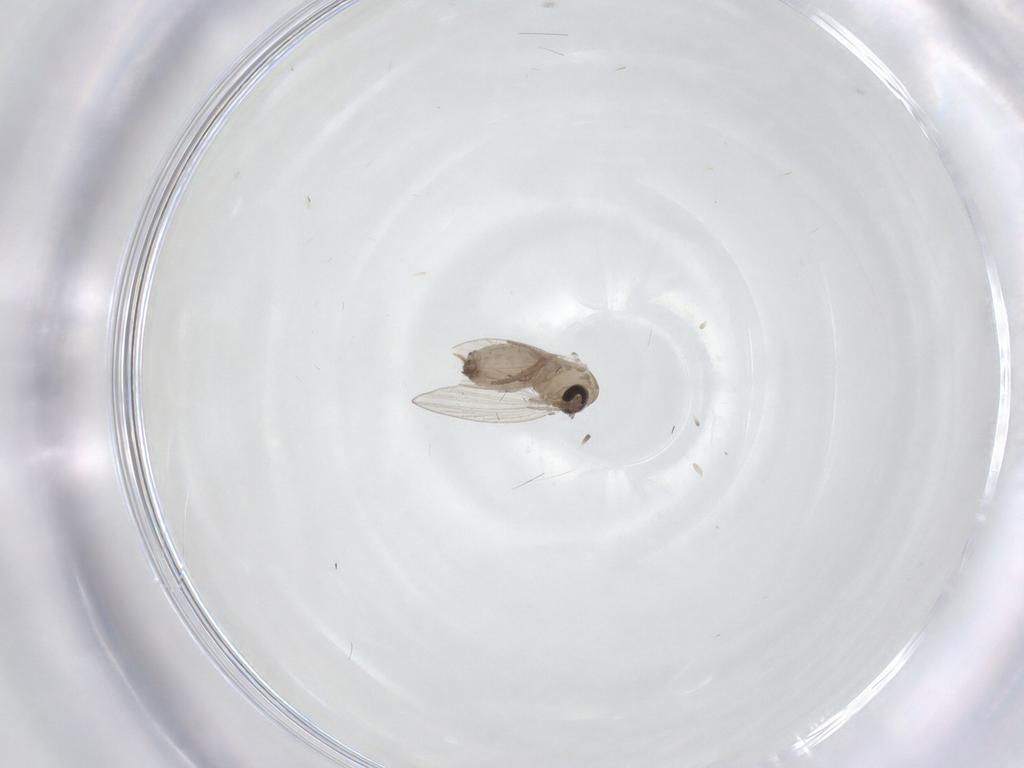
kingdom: Animalia
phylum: Arthropoda
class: Insecta
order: Diptera
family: Psychodidae
